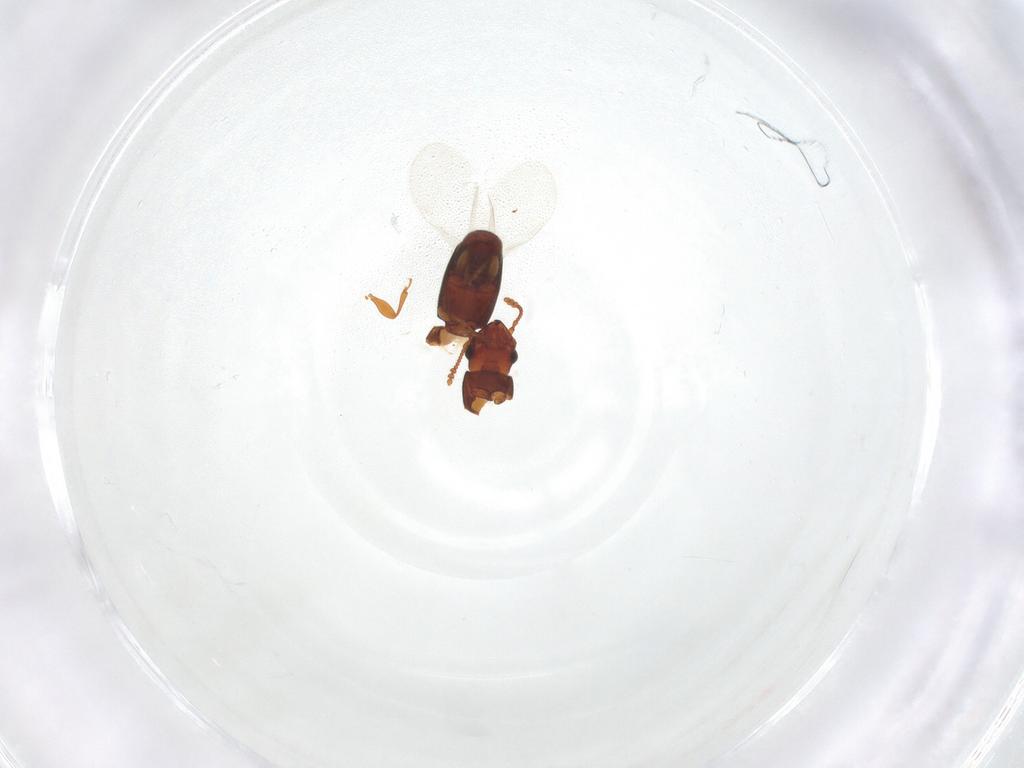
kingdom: Animalia
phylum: Arthropoda
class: Insecta
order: Coleoptera
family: Smicripidae
